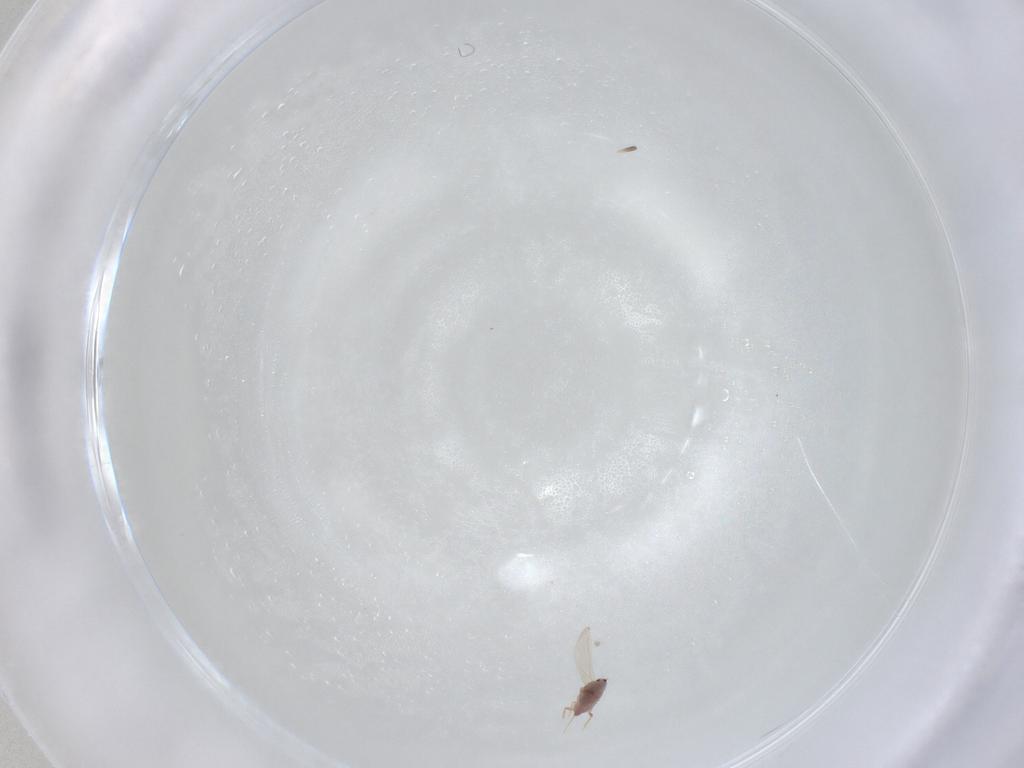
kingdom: Animalia
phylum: Arthropoda
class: Insecta
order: Hemiptera
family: Diaspididae
